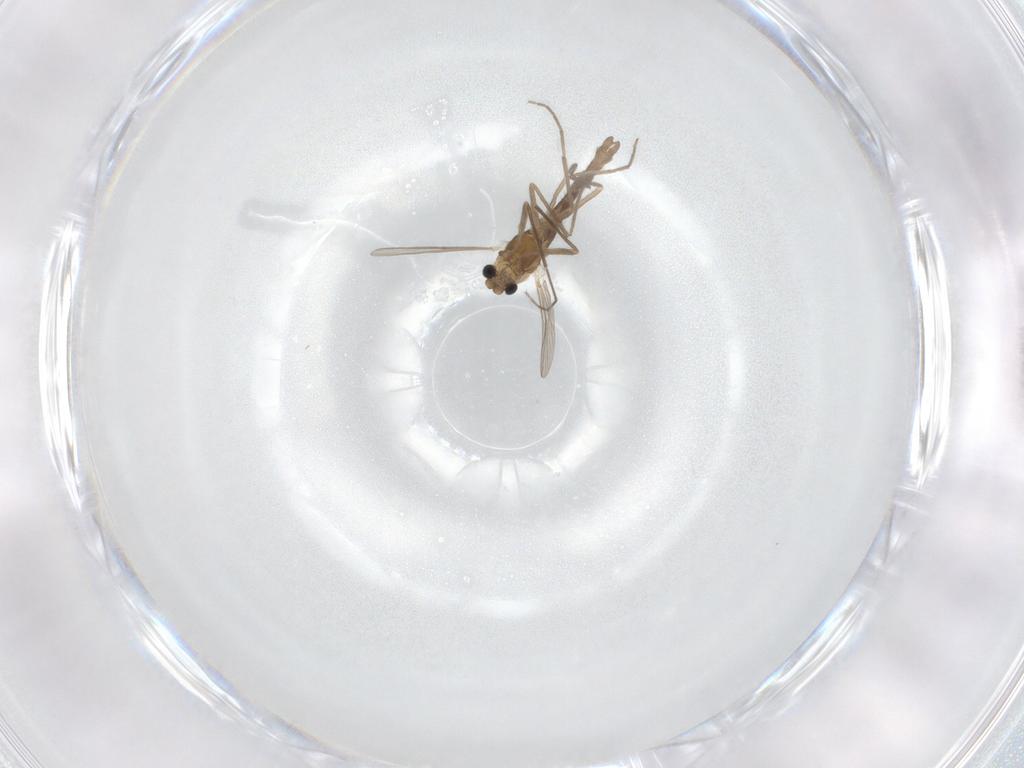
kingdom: Animalia
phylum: Arthropoda
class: Insecta
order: Diptera
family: Chironomidae
